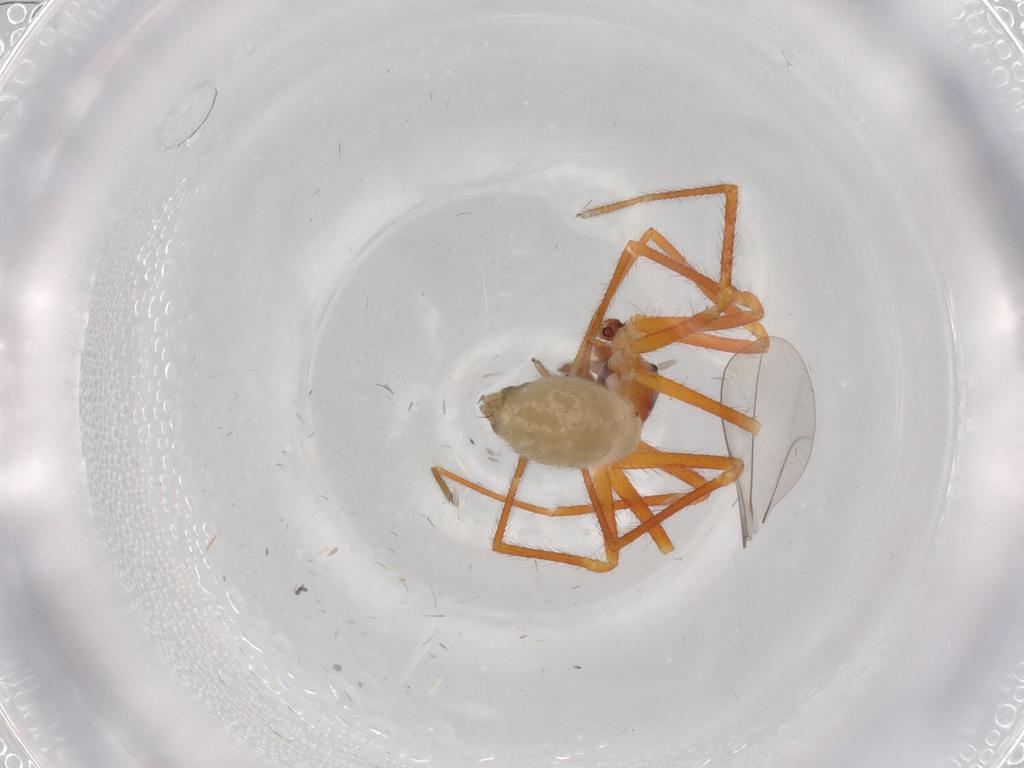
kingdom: Animalia
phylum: Arthropoda
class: Arachnida
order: Araneae
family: Linyphiidae
